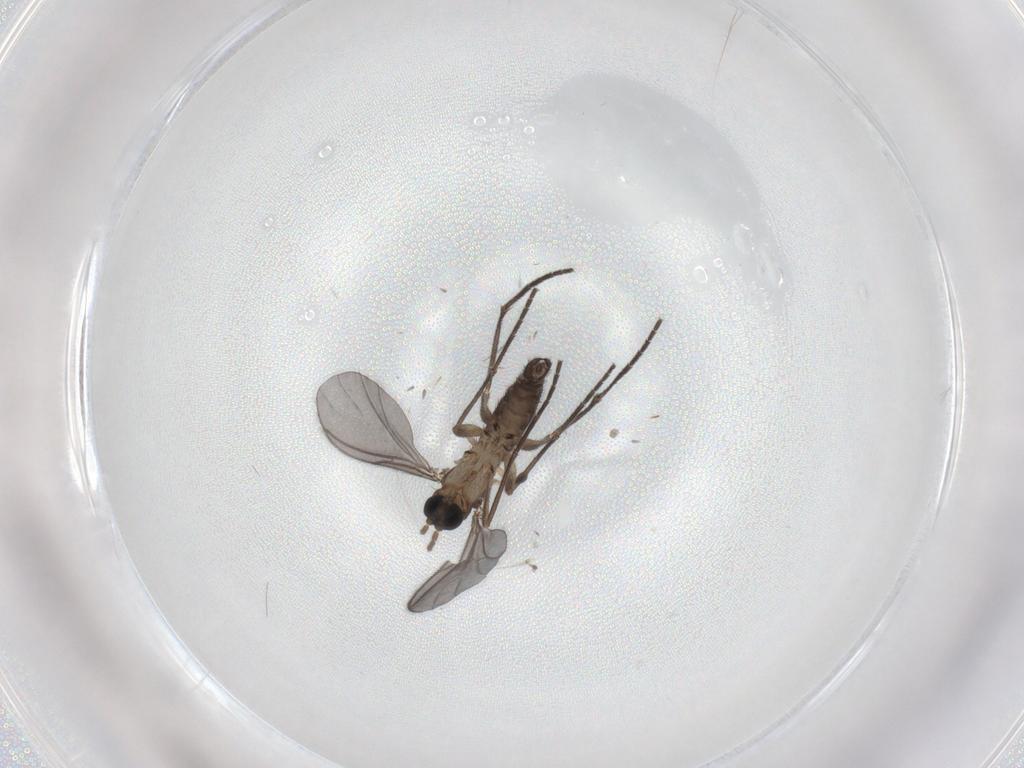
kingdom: Animalia
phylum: Arthropoda
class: Insecta
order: Diptera
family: Sciaridae
